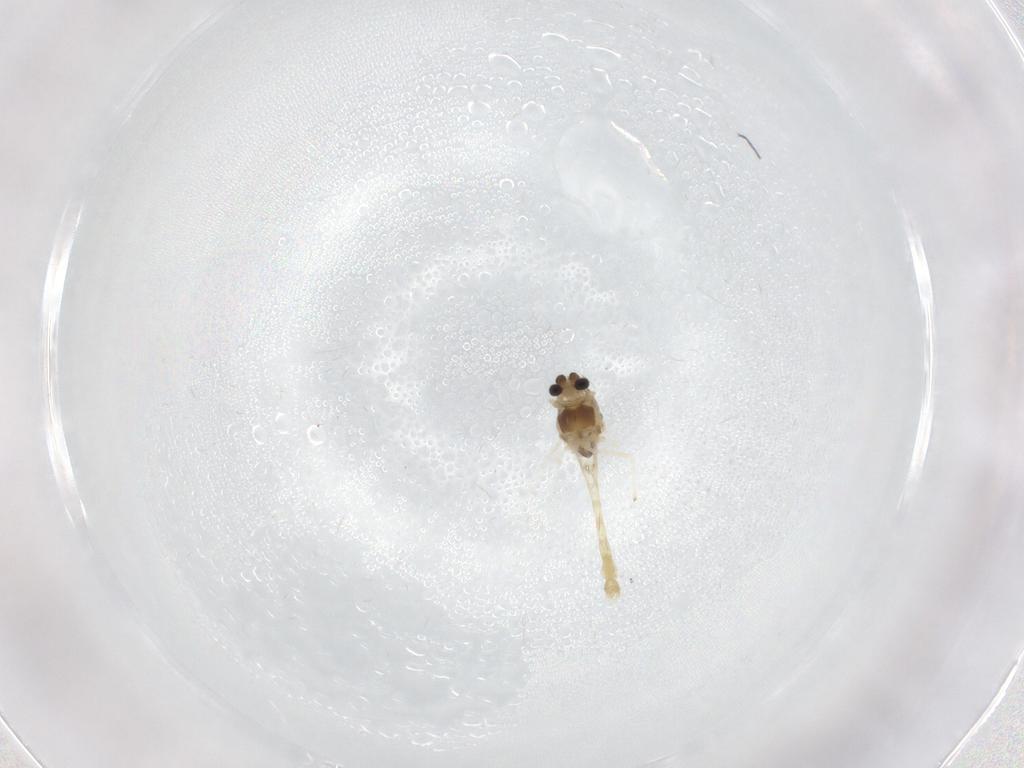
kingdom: Animalia
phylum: Arthropoda
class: Insecta
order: Diptera
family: Chironomidae
